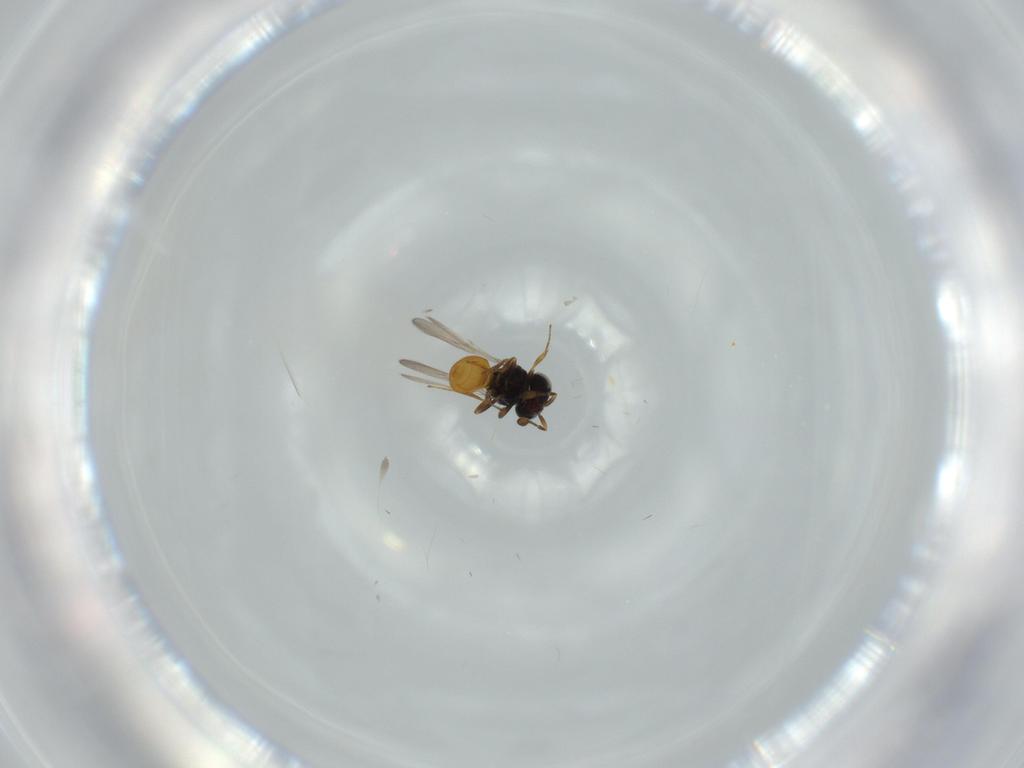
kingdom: Animalia
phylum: Arthropoda
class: Insecta
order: Hymenoptera
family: Scelionidae
